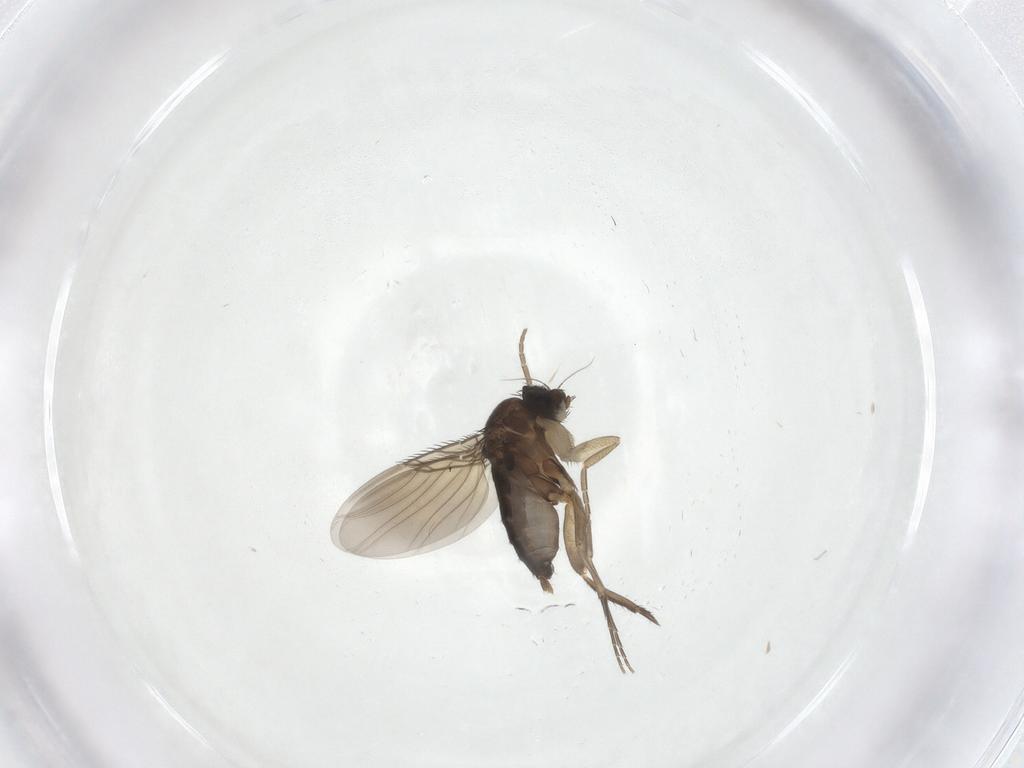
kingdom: Animalia
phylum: Arthropoda
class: Insecta
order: Diptera
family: Phoridae
